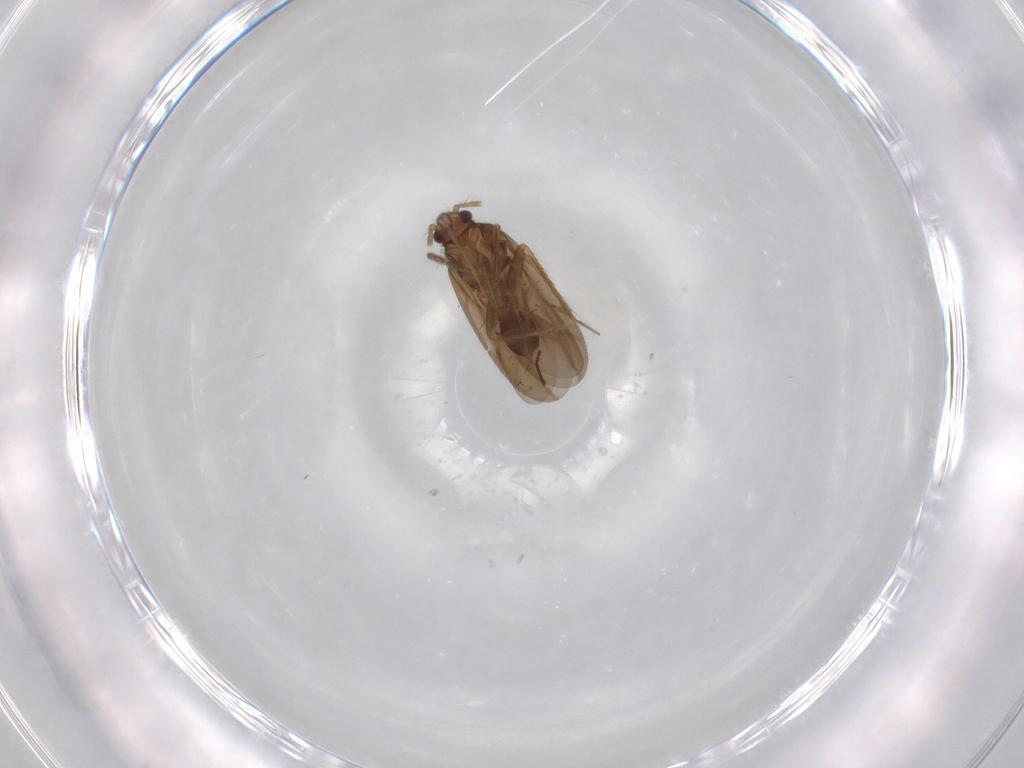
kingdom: Animalia
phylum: Arthropoda
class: Insecta
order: Hemiptera
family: Ceratocombidae
